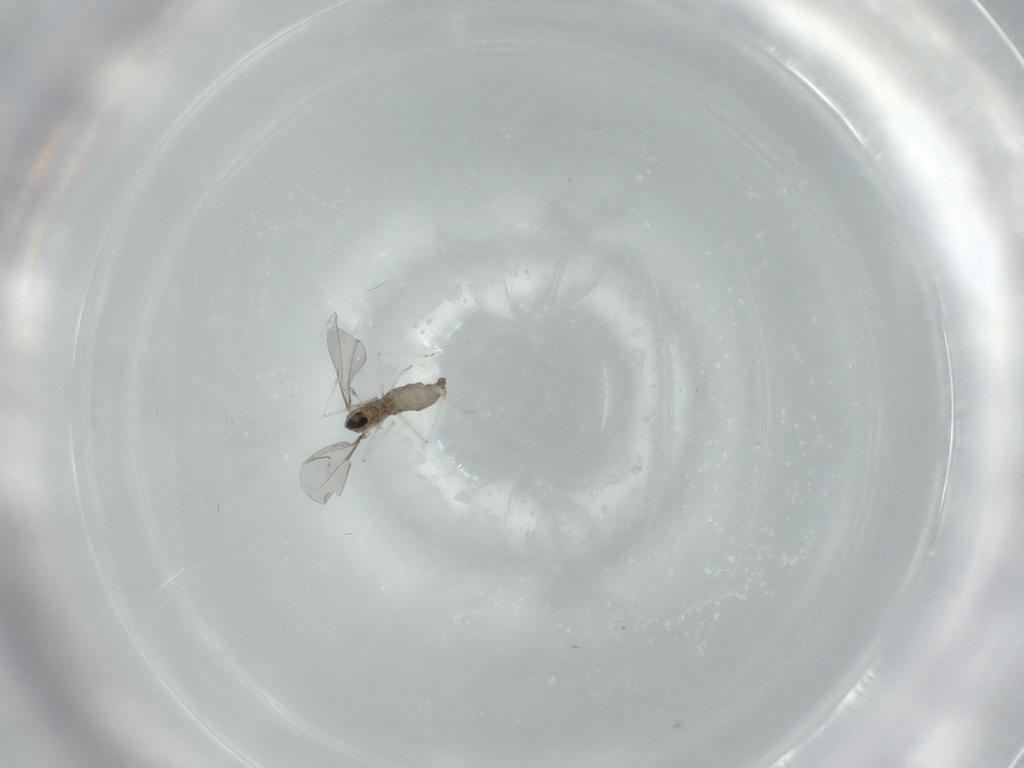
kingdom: Animalia
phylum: Arthropoda
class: Insecta
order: Diptera
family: Cecidomyiidae
